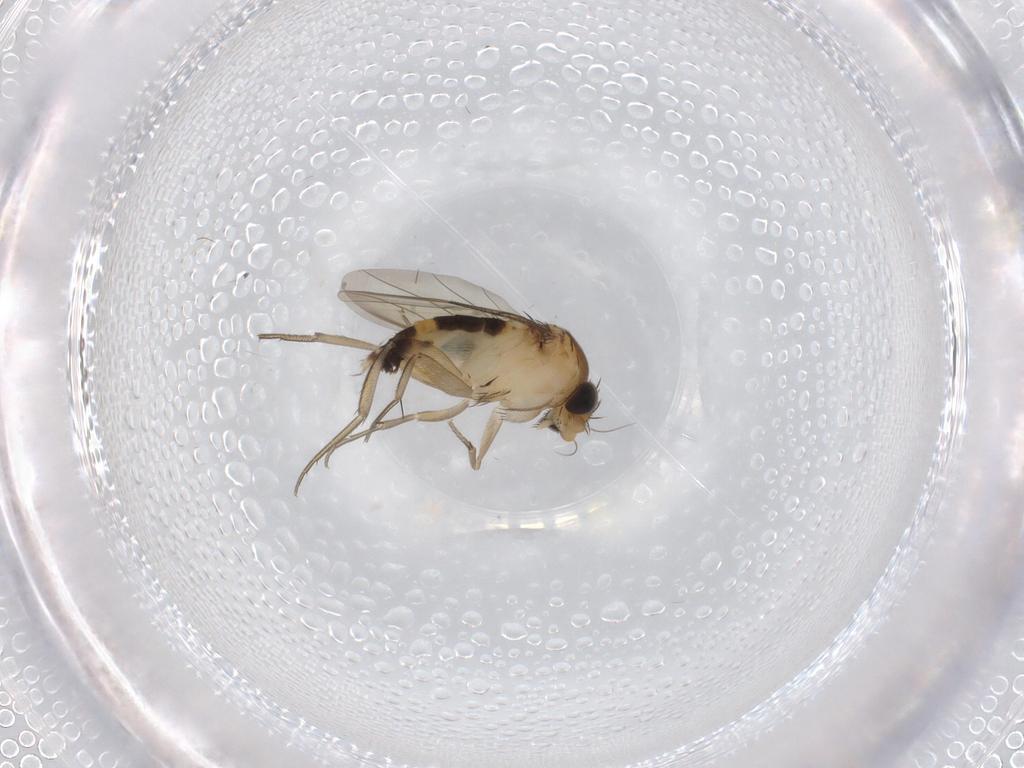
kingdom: Animalia
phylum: Arthropoda
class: Insecta
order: Diptera
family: Phoridae
